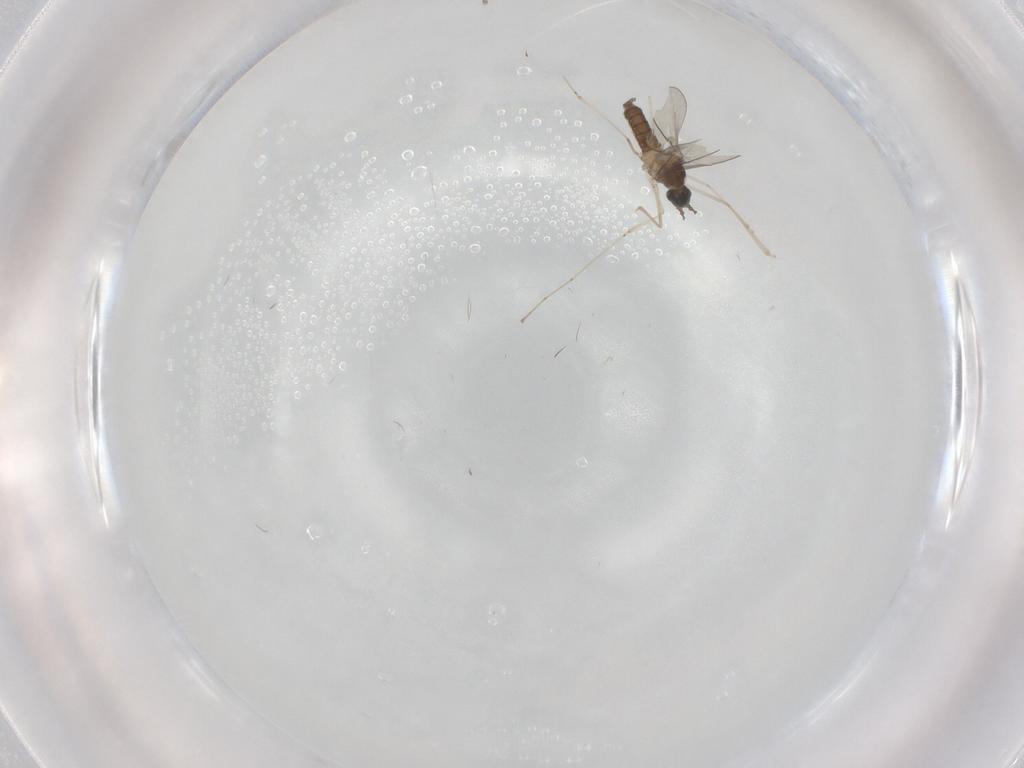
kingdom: Animalia
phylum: Arthropoda
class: Insecta
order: Diptera
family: Chironomidae
